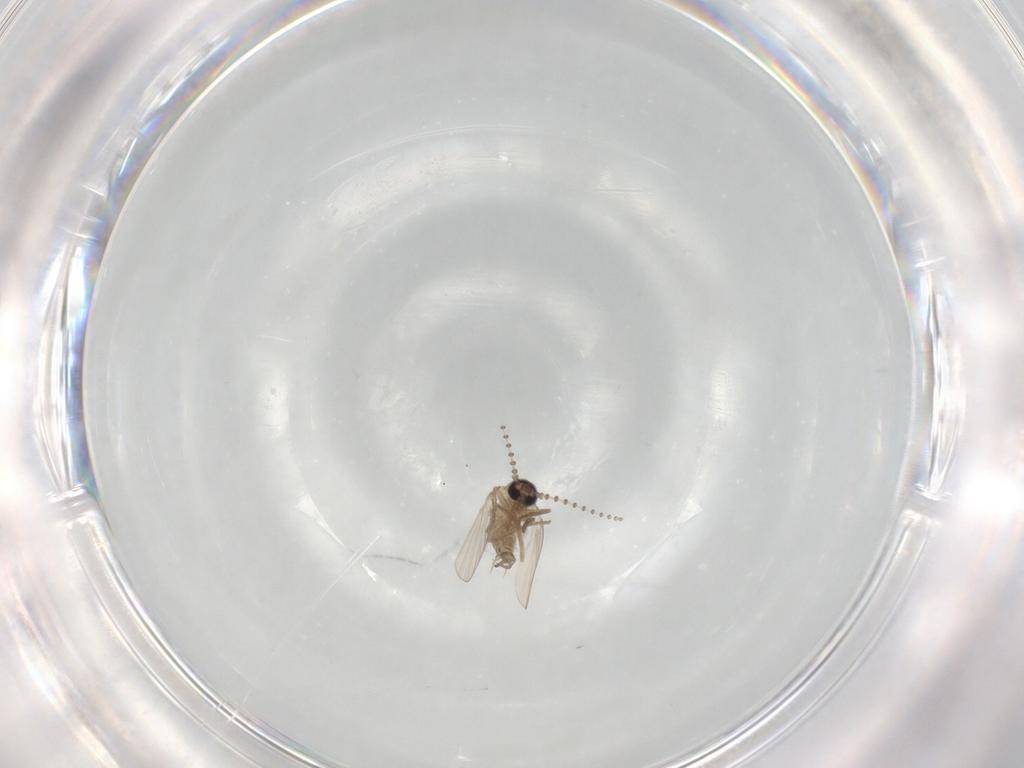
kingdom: Animalia
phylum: Arthropoda
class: Insecta
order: Diptera
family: Psychodidae
